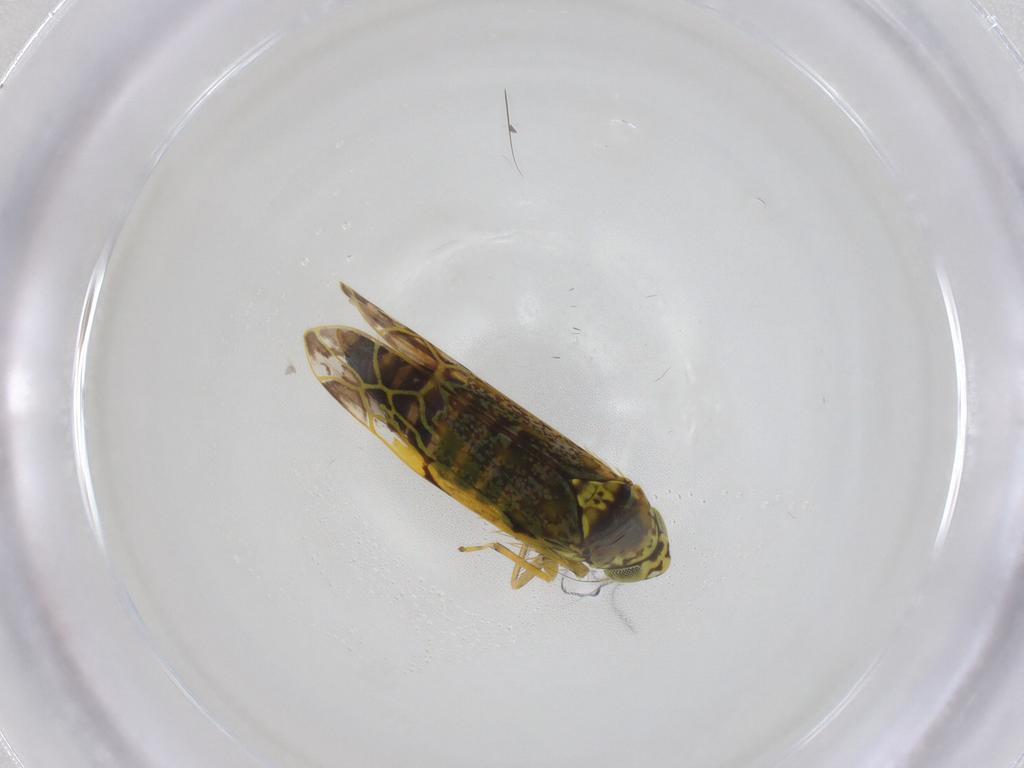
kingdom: Animalia
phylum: Arthropoda
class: Insecta
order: Hemiptera
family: Cicadellidae
